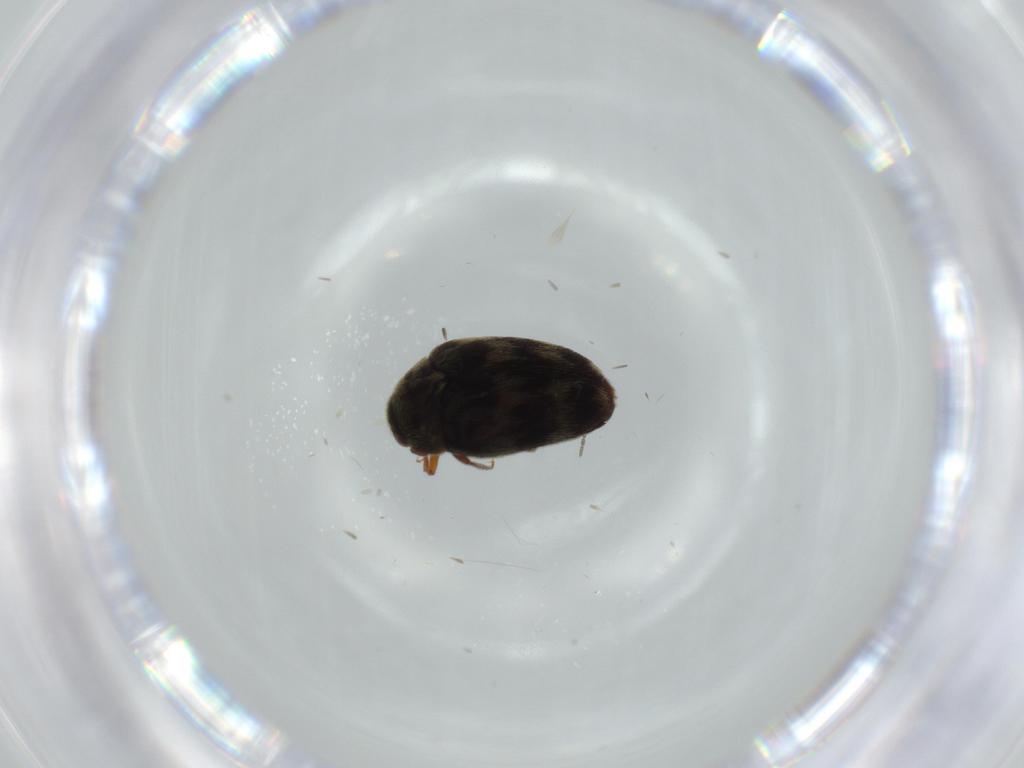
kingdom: Animalia
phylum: Arthropoda
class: Insecta
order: Coleoptera
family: Dermestidae
